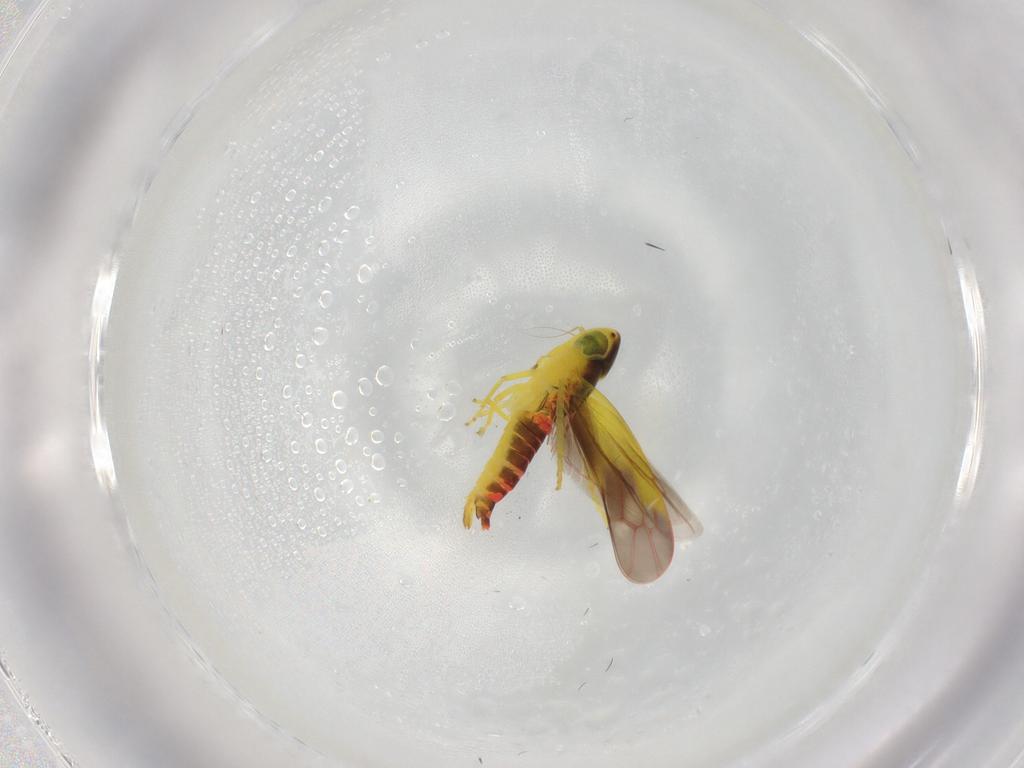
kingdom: Animalia
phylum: Arthropoda
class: Insecta
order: Hemiptera
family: Cicadellidae
